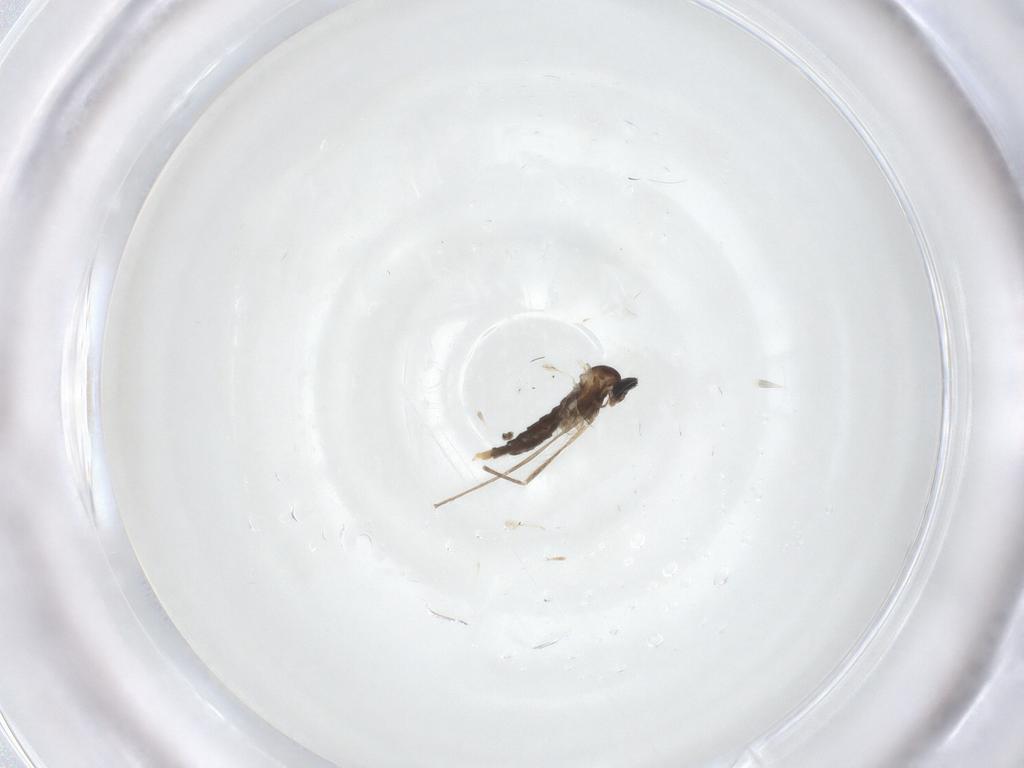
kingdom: Animalia
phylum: Arthropoda
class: Insecta
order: Diptera
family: Cecidomyiidae
